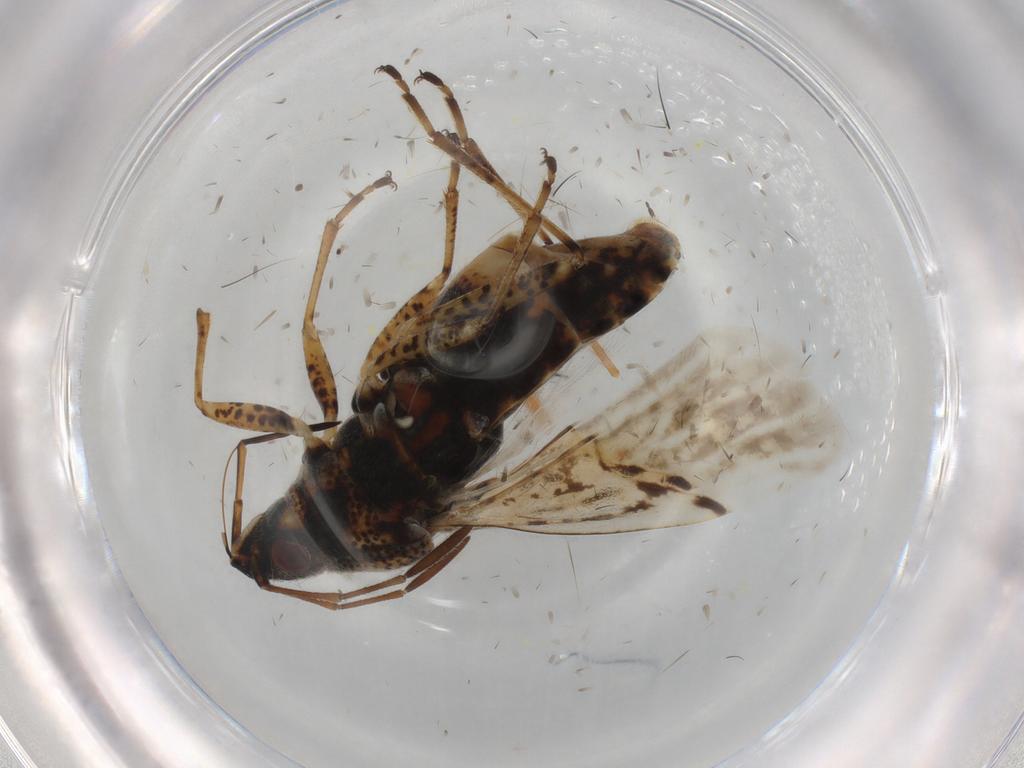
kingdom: Animalia
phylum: Arthropoda
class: Insecta
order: Hemiptera
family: Berytidae
